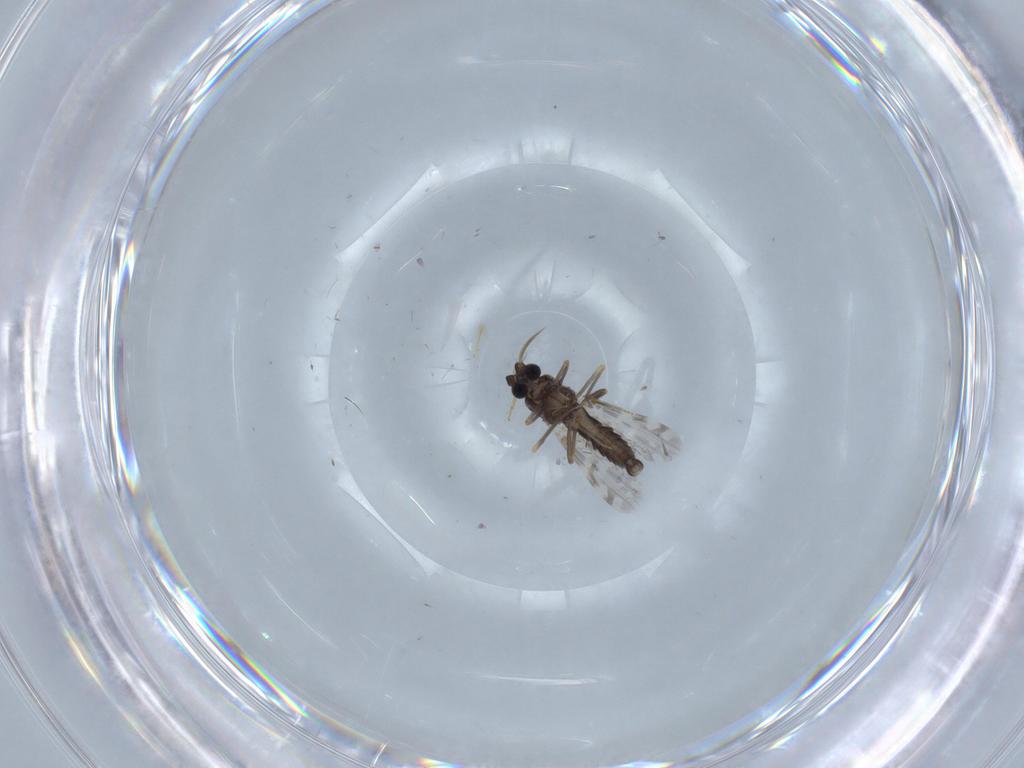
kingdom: Animalia
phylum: Arthropoda
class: Insecta
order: Diptera
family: Ceratopogonidae
